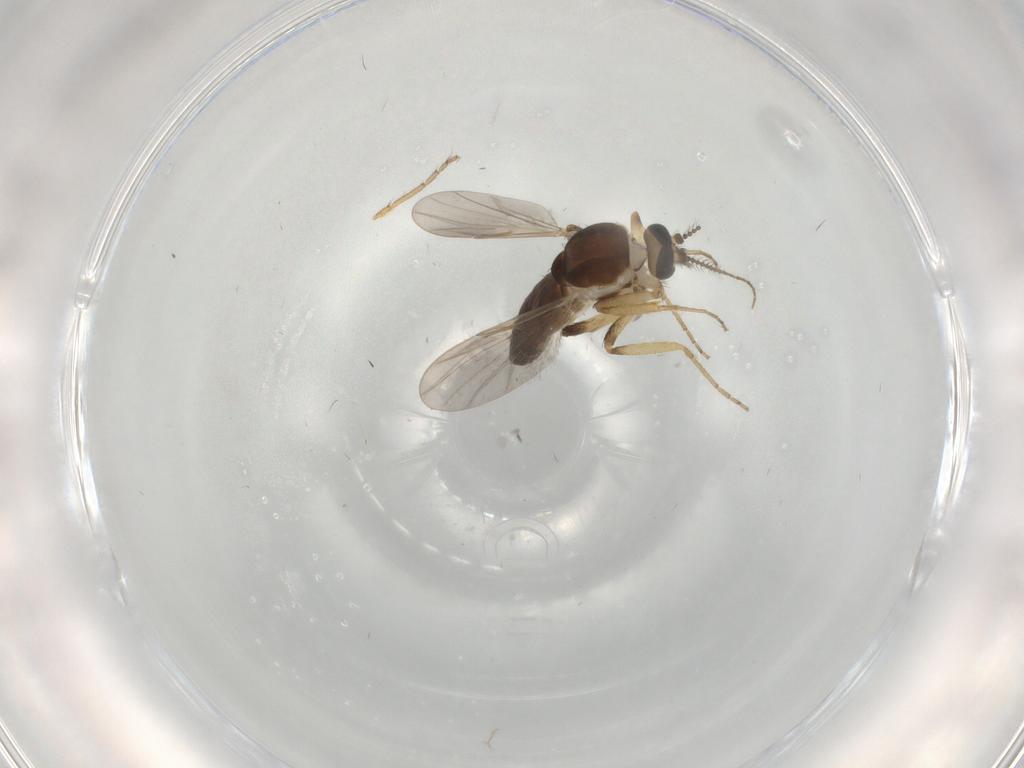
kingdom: Animalia
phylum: Arthropoda
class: Insecta
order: Diptera
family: Ceratopogonidae
